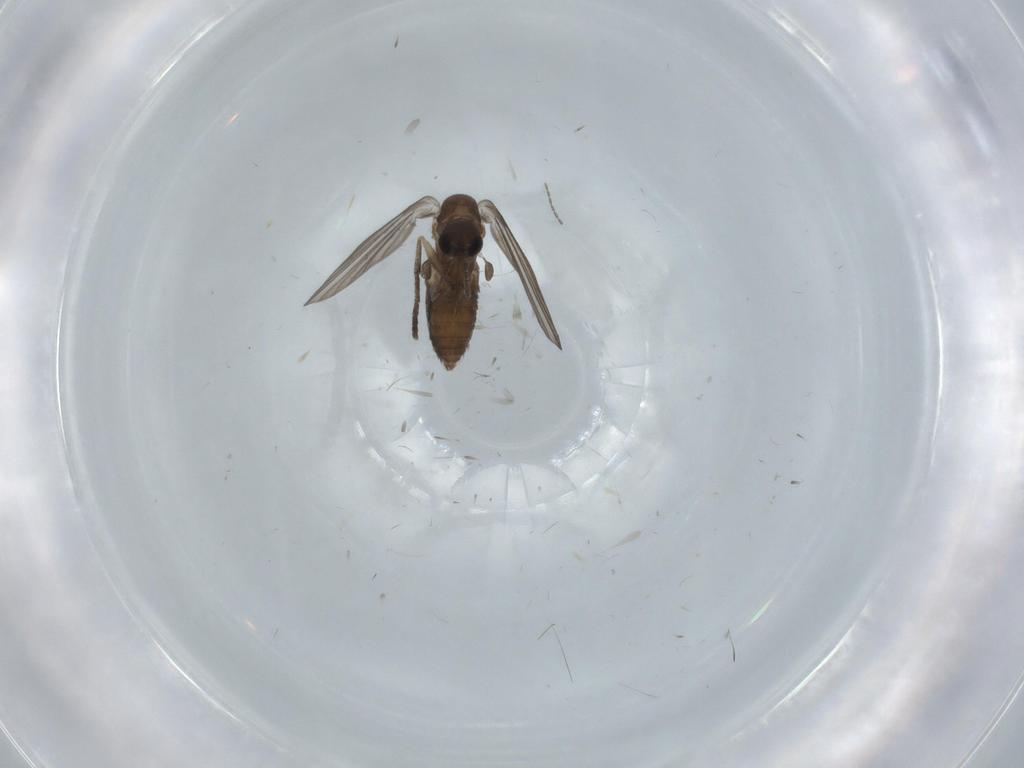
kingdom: Animalia
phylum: Arthropoda
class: Insecta
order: Diptera
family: Psychodidae
